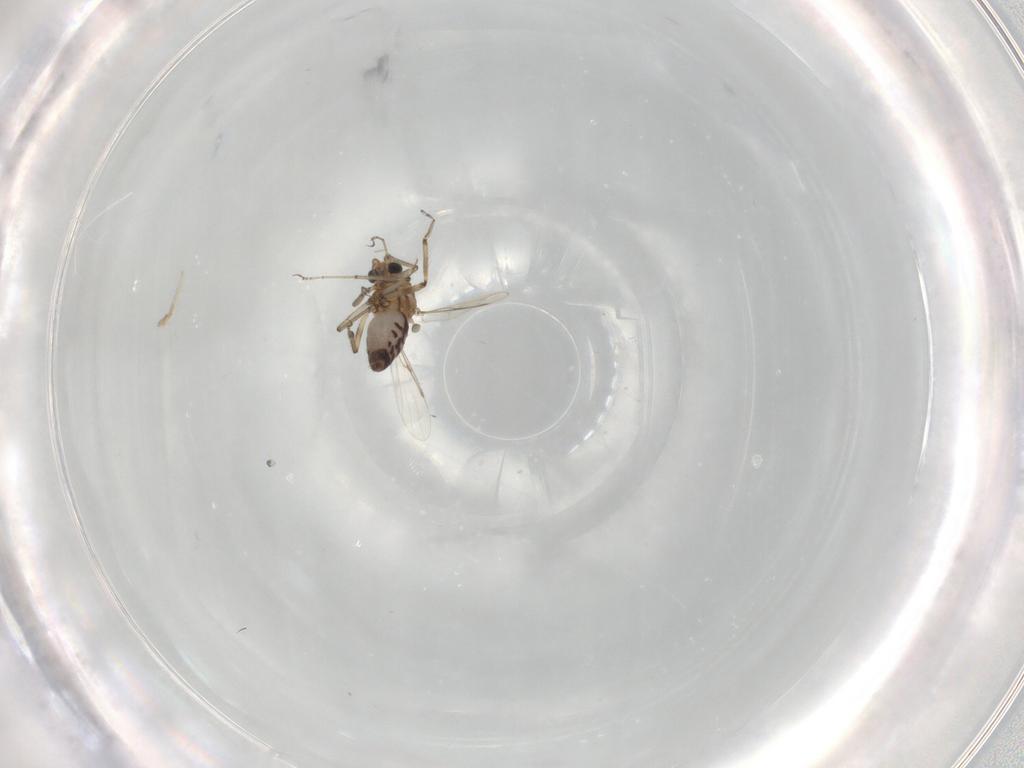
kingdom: Animalia
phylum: Arthropoda
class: Insecta
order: Diptera
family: Ceratopogonidae
